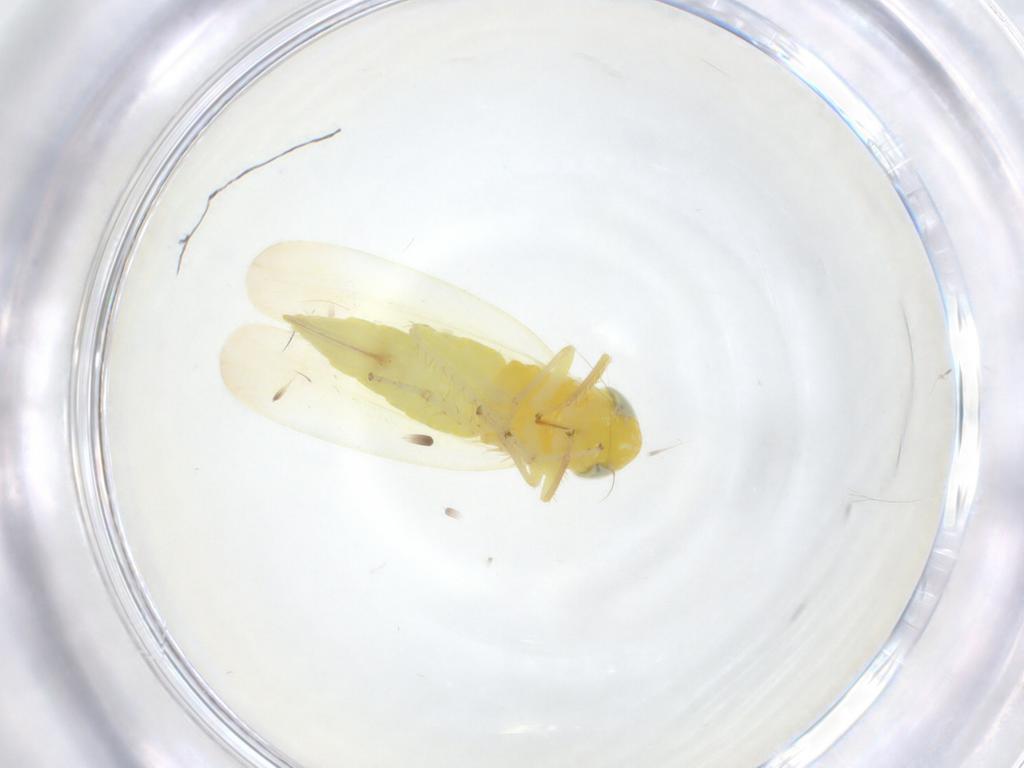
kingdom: Animalia
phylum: Arthropoda
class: Insecta
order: Hemiptera
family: Cicadellidae
